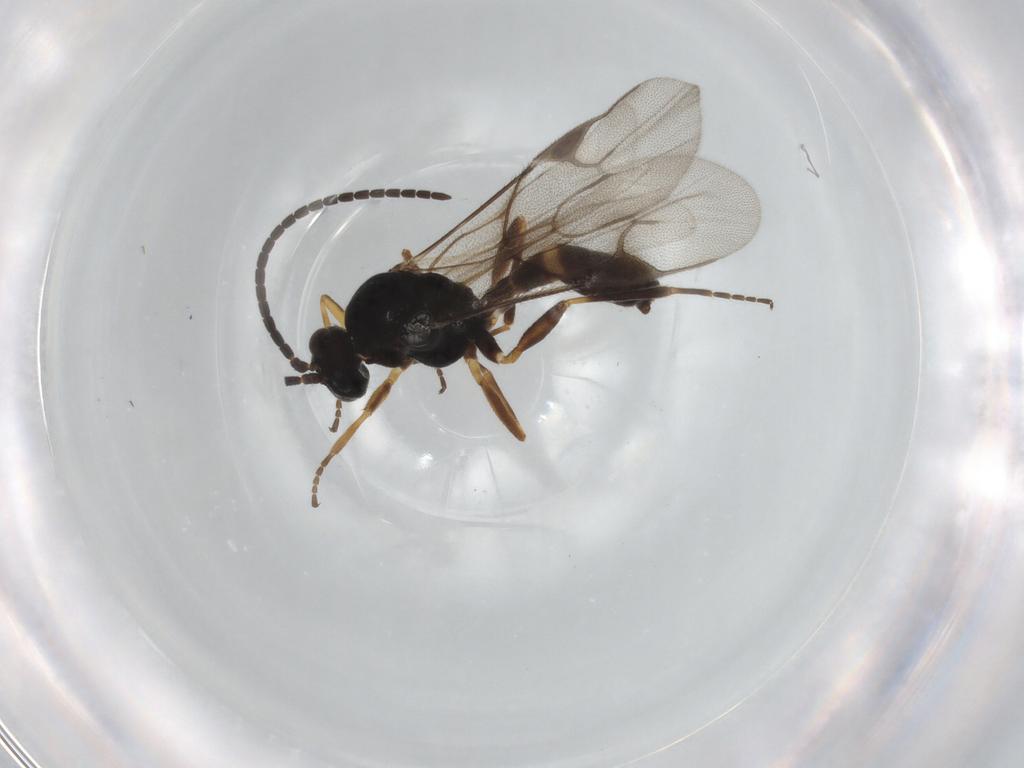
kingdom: Animalia
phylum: Arthropoda
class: Insecta
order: Hymenoptera
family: Braconidae
